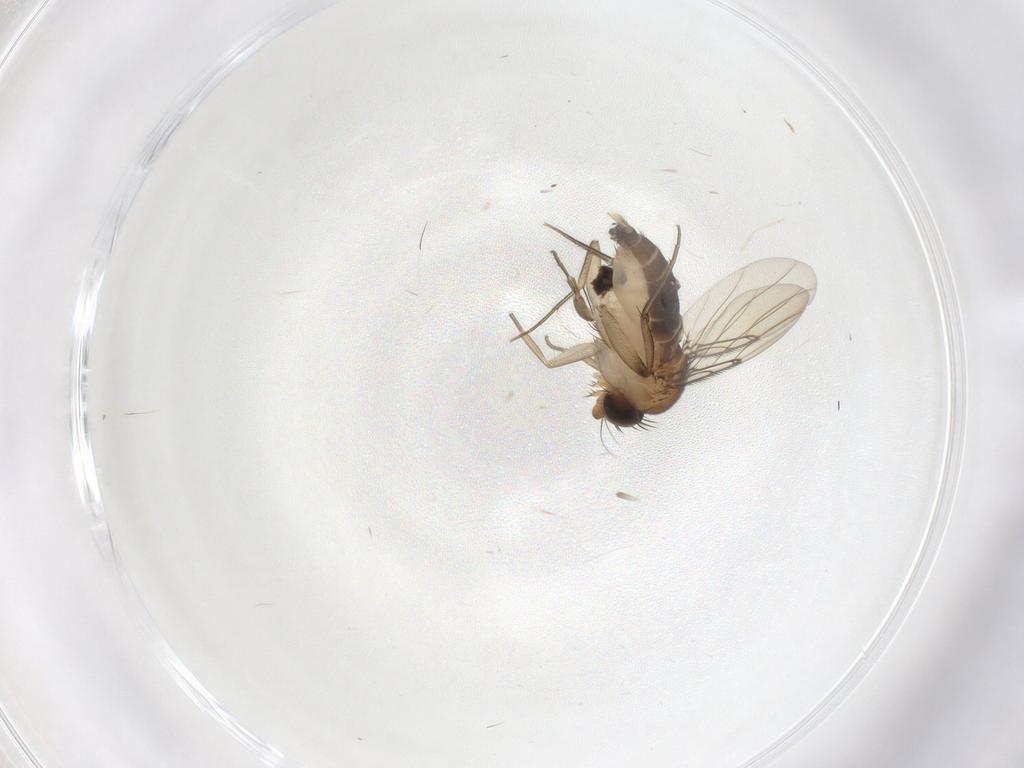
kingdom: Animalia
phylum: Arthropoda
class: Insecta
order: Diptera
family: Phoridae
